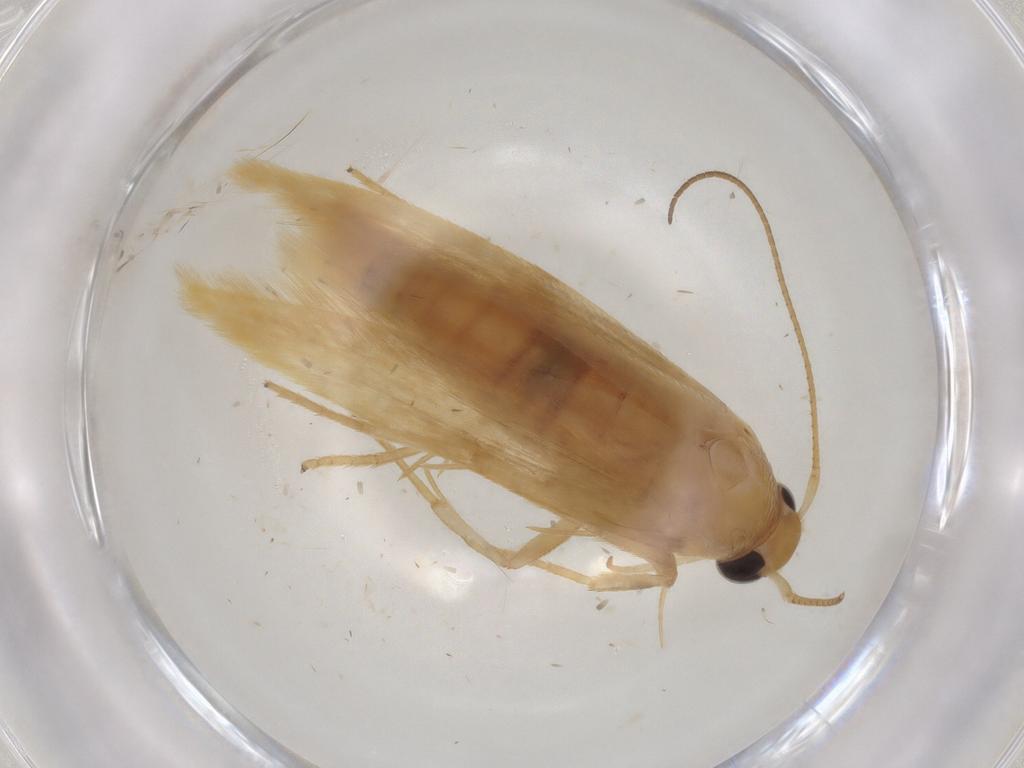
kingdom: Animalia
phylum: Arthropoda
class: Insecta
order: Lepidoptera
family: Stathmopodidae
